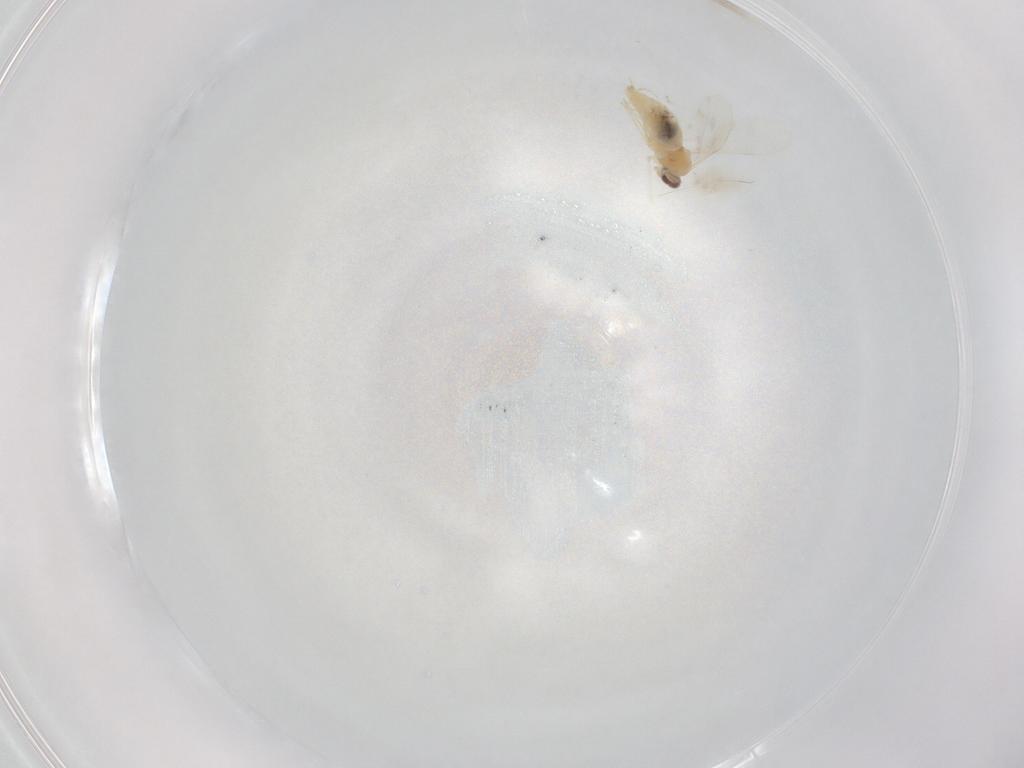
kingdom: Animalia
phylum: Arthropoda
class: Insecta
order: Diptera
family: Cecidomyiidae
